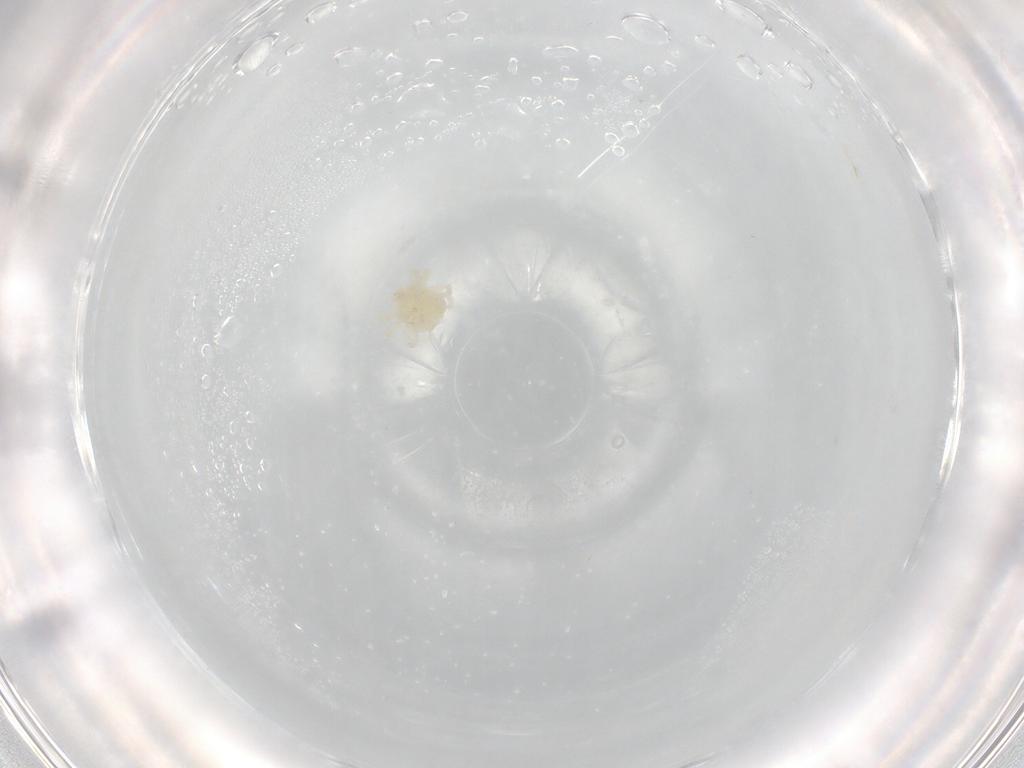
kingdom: Animalia
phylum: Arthropoda
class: Arachnida
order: Trombidiformes
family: Anystidae
